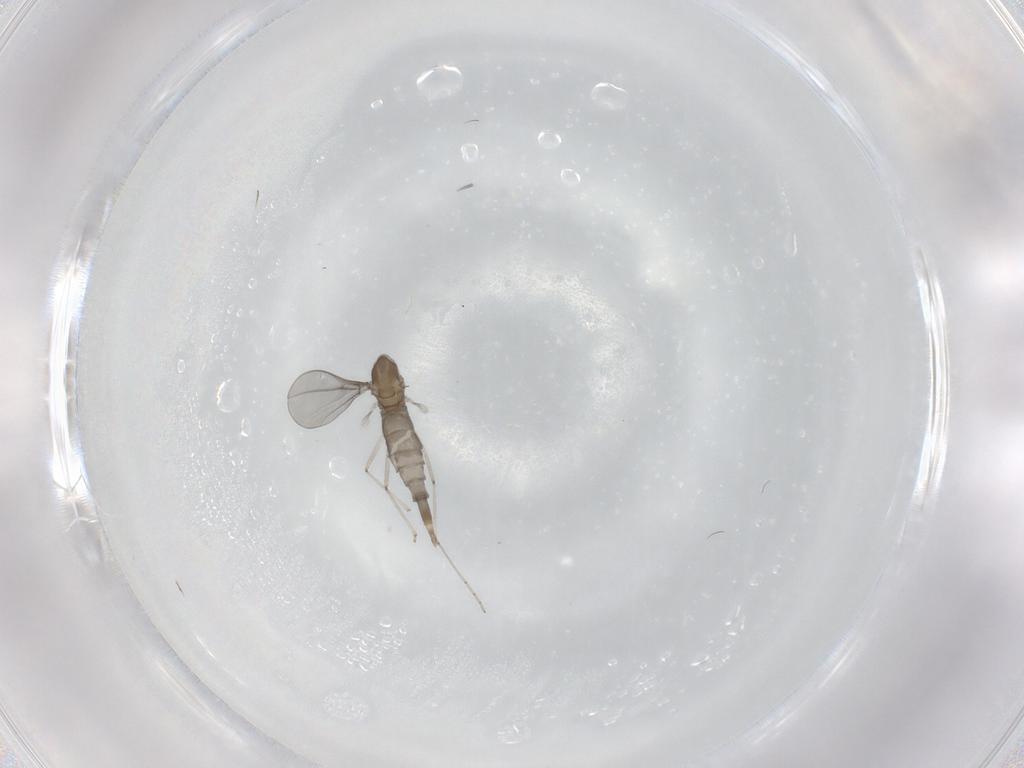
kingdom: Animalia
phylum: Arthropoda
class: Insecta
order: Diptera
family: Cecidomyiidae
